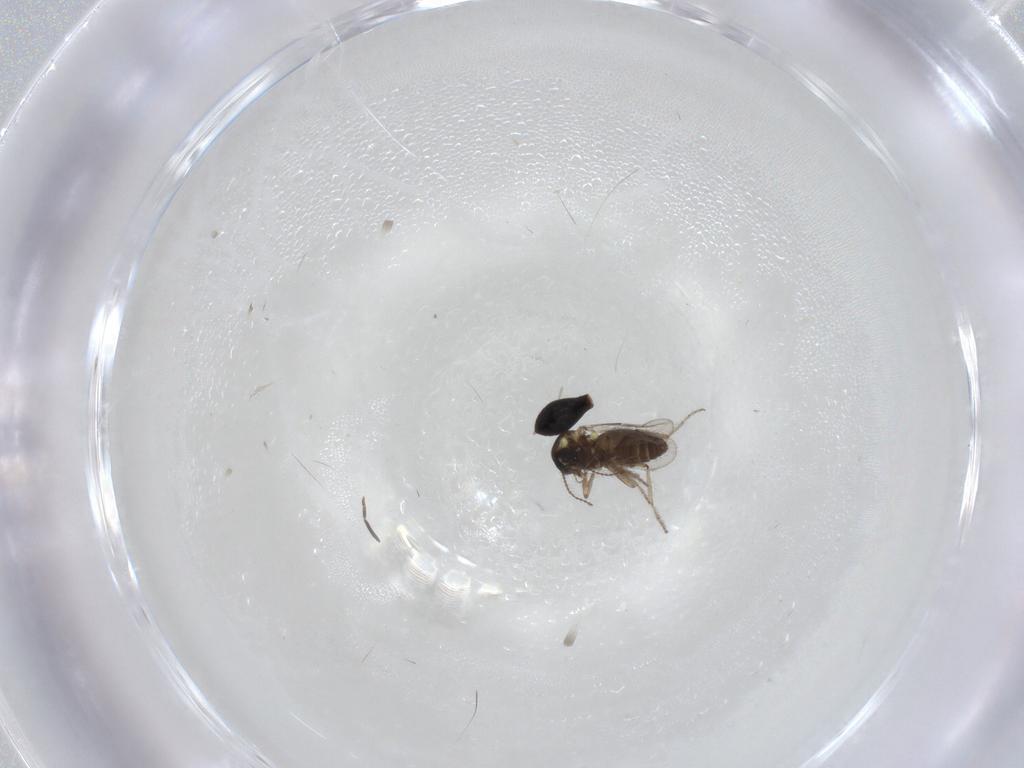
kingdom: Animalia
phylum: Arthropoda
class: Insecta
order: Diptera
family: Ceratopogonidae
